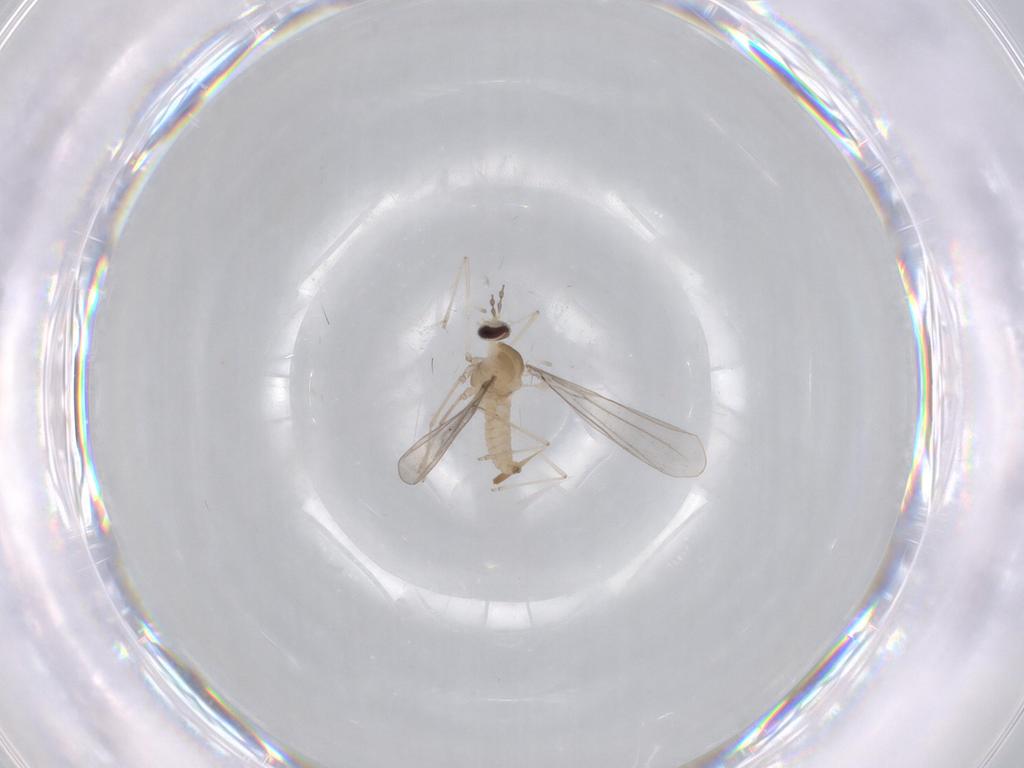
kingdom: Animalia
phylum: Arthropoda
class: Insecta
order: Diptera
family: Cecidomyiidae
